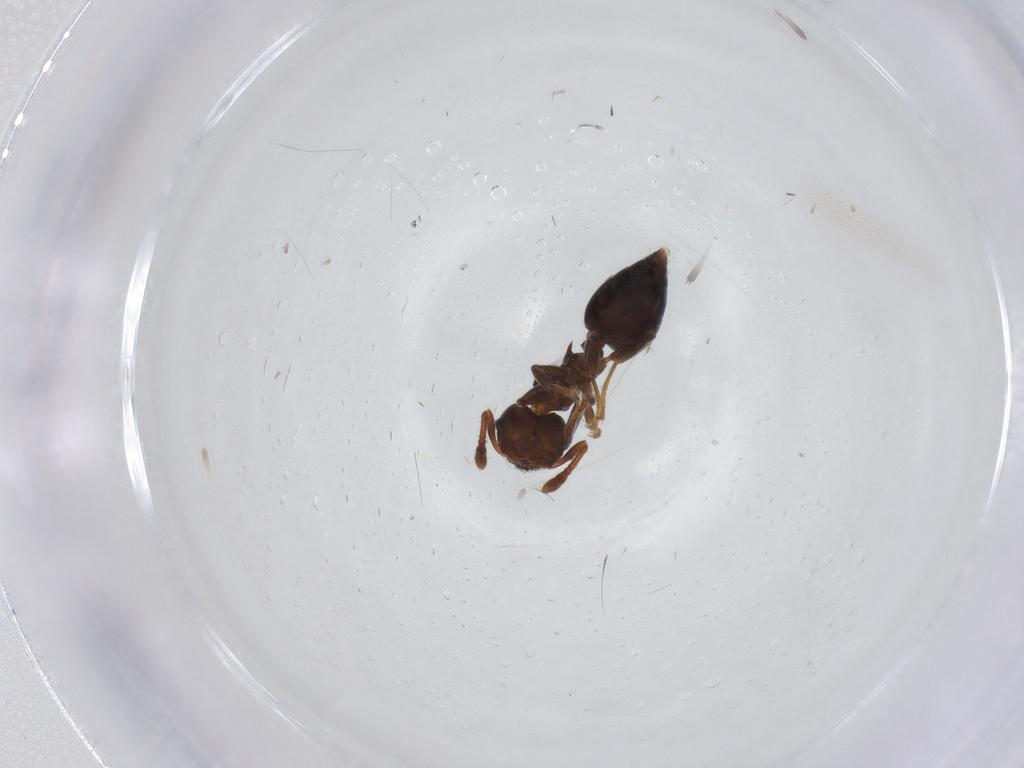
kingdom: Animalia
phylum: Arthropoda
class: Insecta
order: Hymenoptera
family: Formicidae
